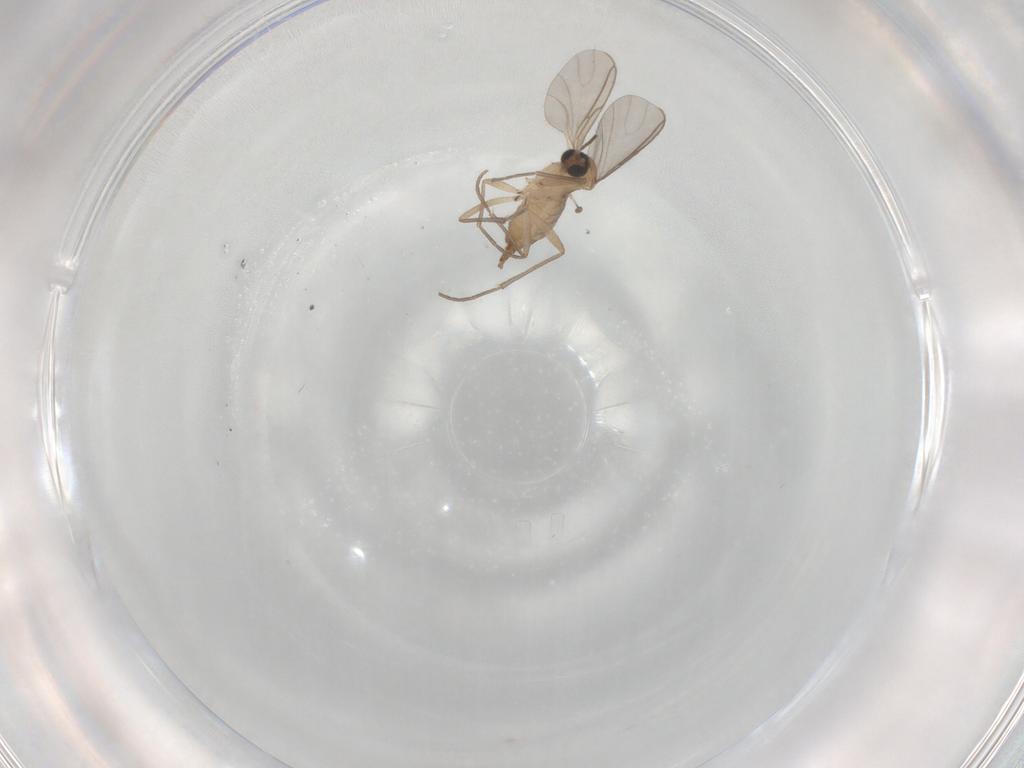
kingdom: Animalia
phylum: Arthropoda
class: Insecta
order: Diptera
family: Sciaridae
